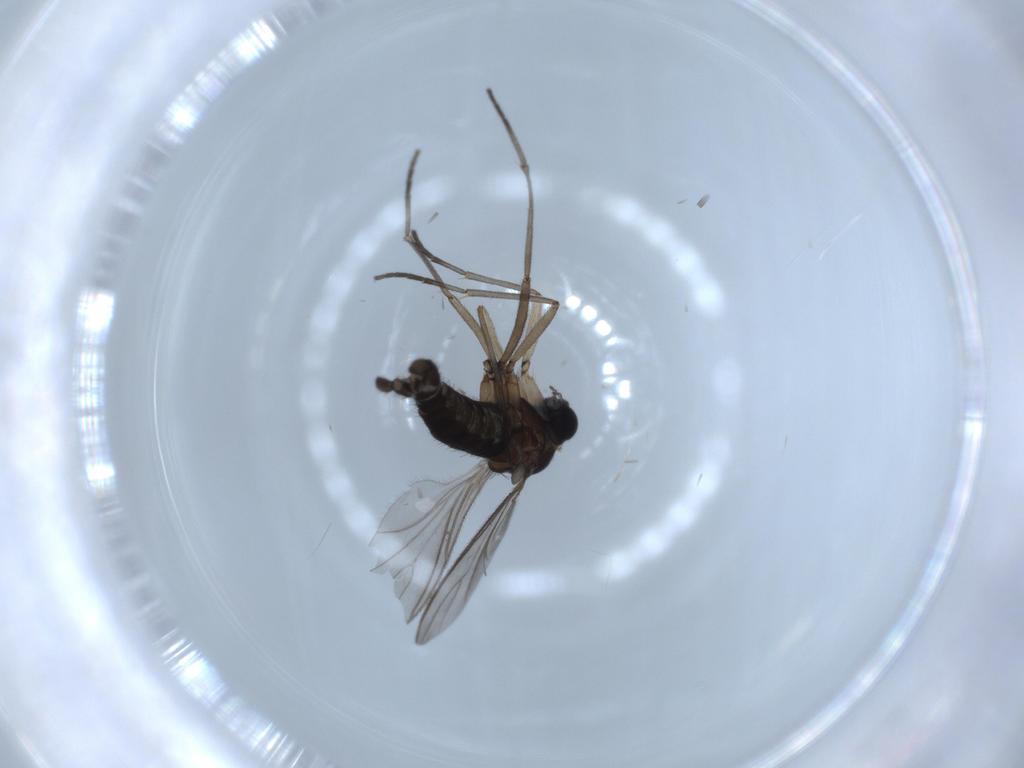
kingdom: Animalia
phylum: Arthropoda
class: Insecta
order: Diptera
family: Sciaridae
